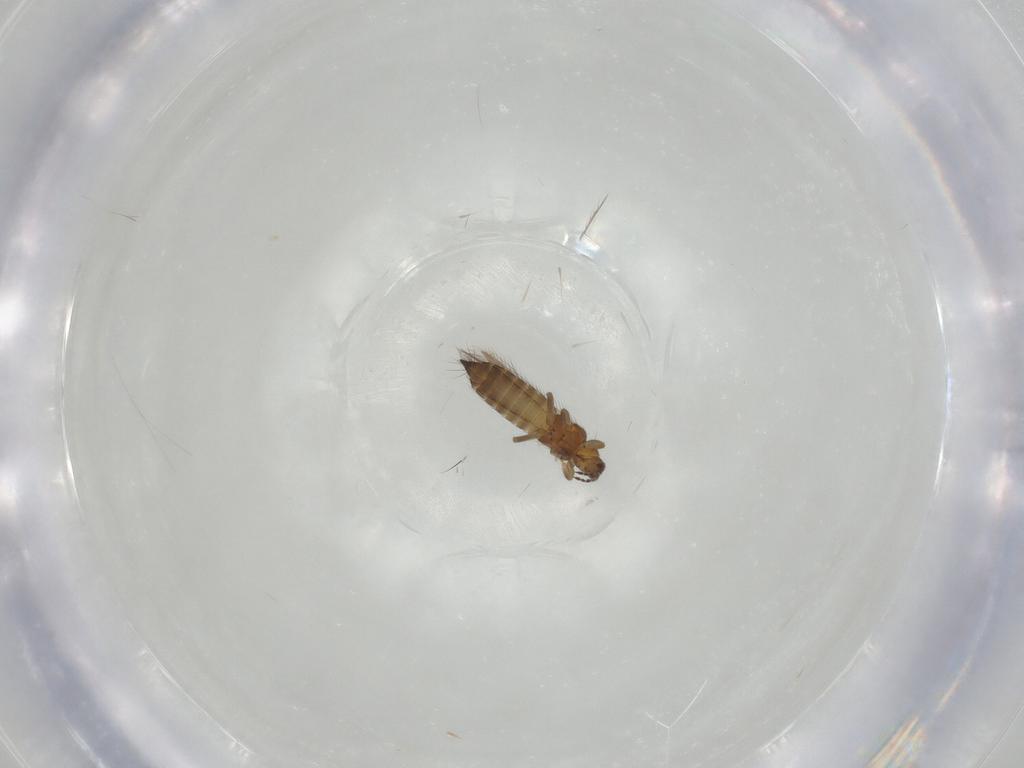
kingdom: Animalia
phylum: Arthropoda
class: Insecta
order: Thysanoptera
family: Thripidae
